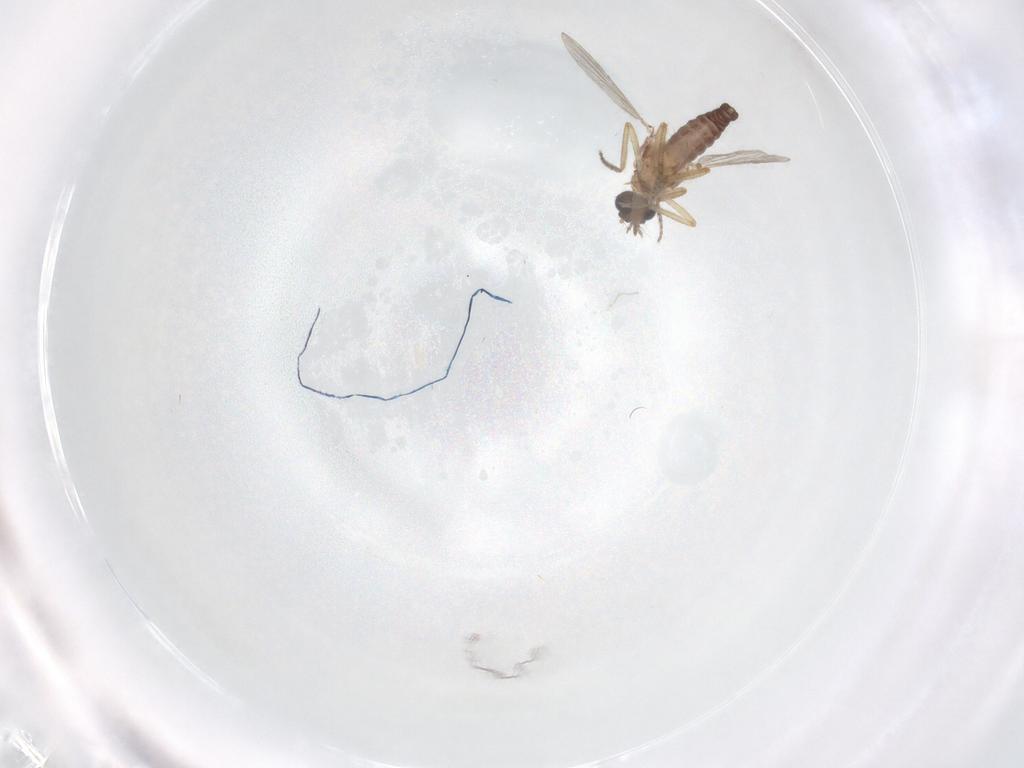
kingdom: Animalia
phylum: Arthropoda
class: Insecta
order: Diptera
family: Ceratopogonidae
